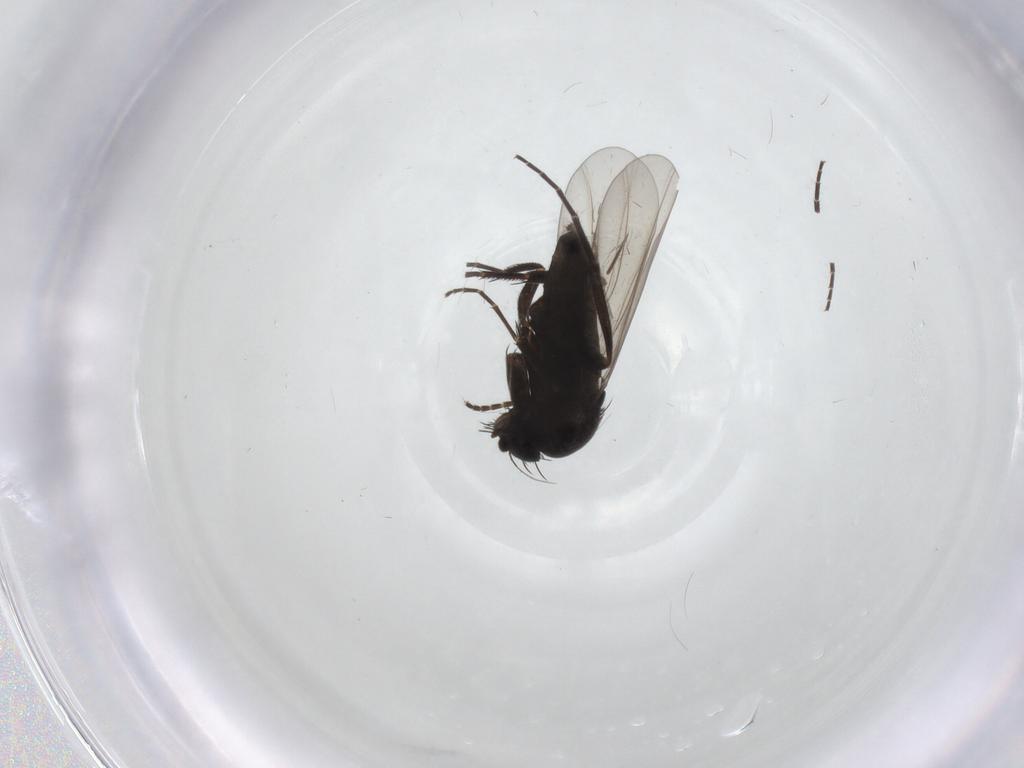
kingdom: Animalia
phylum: Arthropoda
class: Insecta
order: Diptera
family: Phoridae
